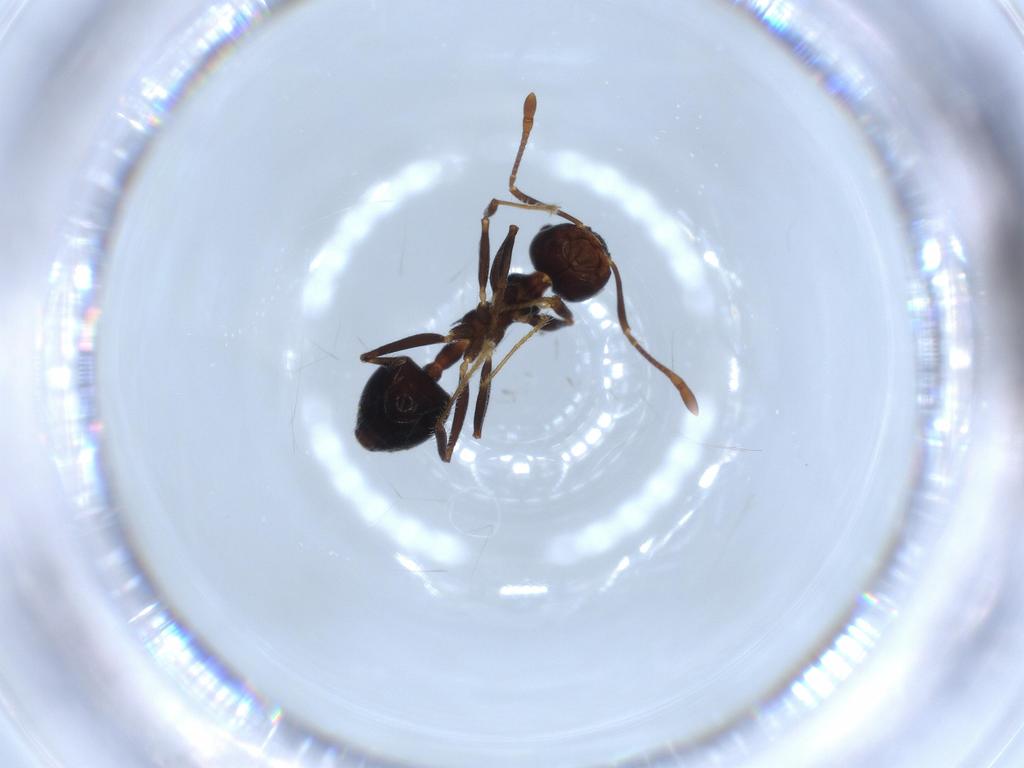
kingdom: Animalia
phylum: Arthropoda
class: Insecta
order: Hymenoptera
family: Formicidae
